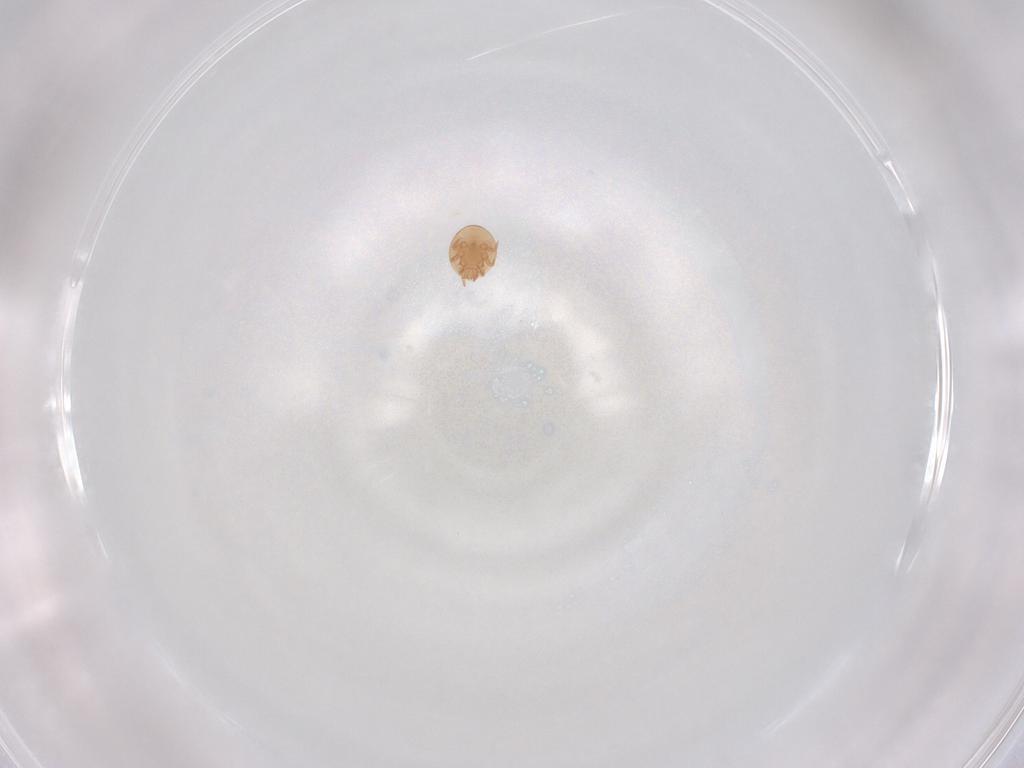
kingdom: Animalia
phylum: Arthropoda
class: Arachnida
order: Mesostigmata
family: Trematuridae
